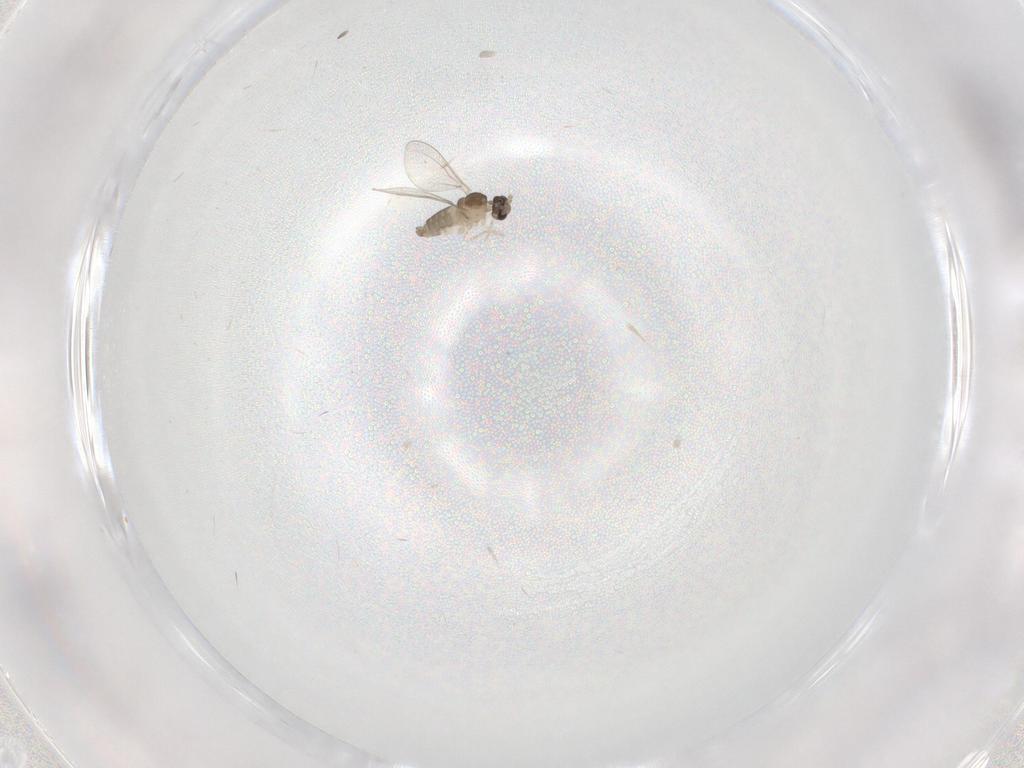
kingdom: Animalia
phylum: Arthropoda
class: Insecta
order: Diptera
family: Cecidomyiidae
